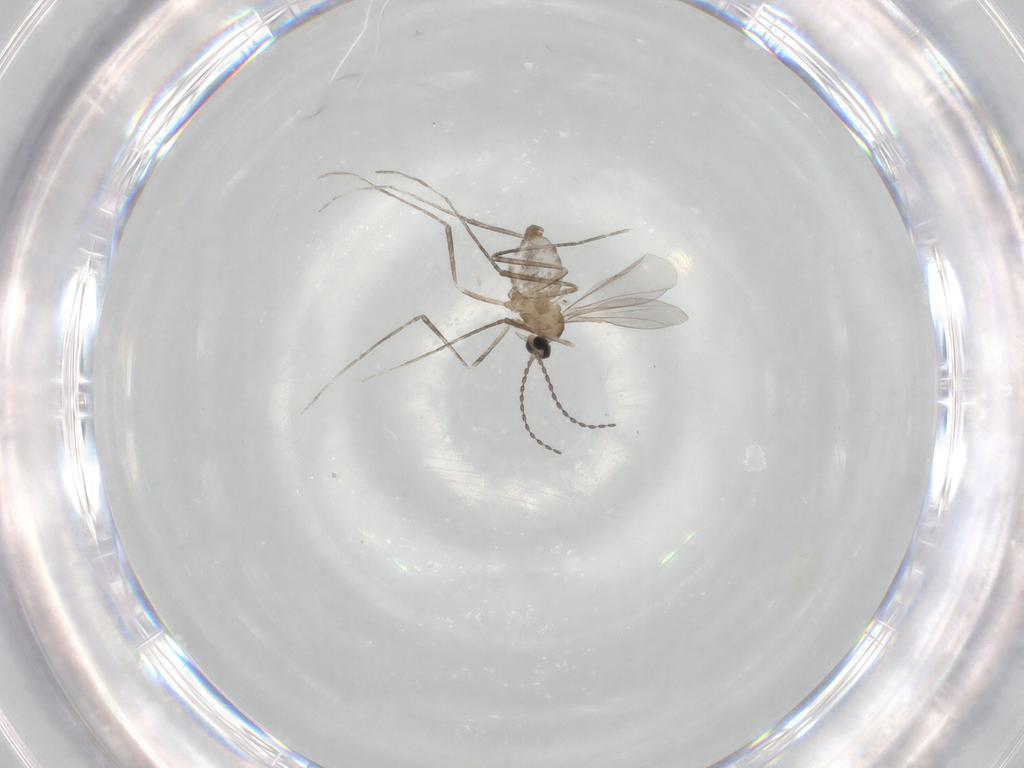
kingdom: Animalia
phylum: Arthropoda
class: Insecta
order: Diptera
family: Cecidomyiidae
